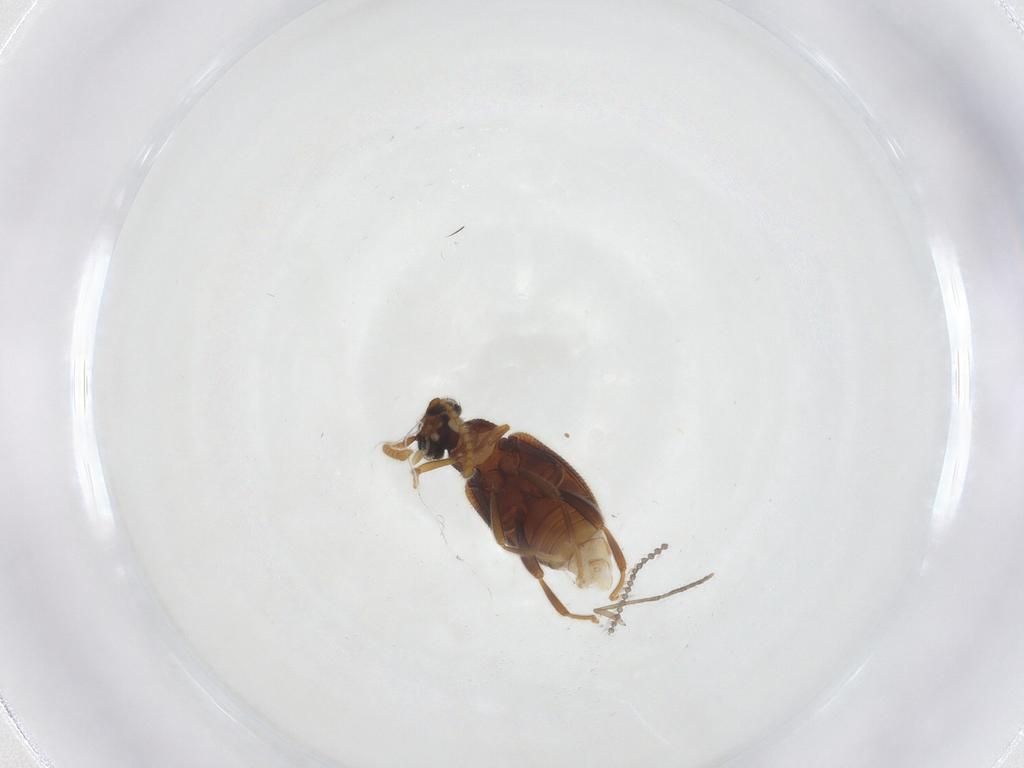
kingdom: Animalia
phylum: Arthropoda
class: Insecta
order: Coleoptera
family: Aderidae
